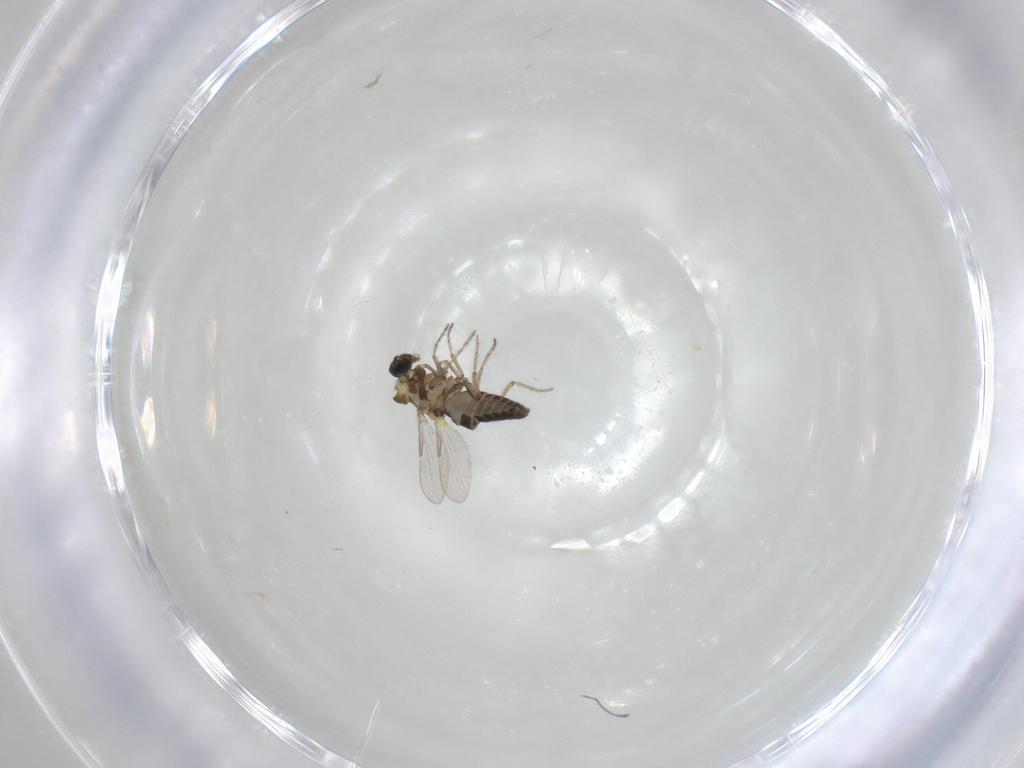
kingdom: Animalia
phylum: Arthropoda
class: Insecta
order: Diptera
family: Ceratopogonidae
